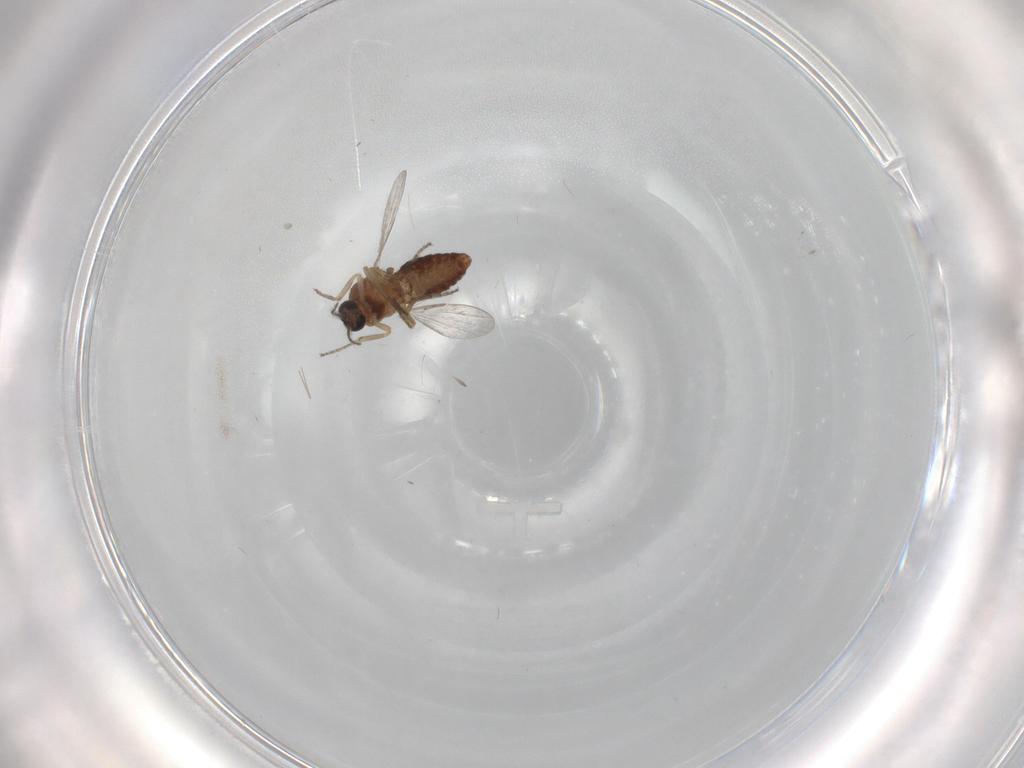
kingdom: Animalia
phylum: Arthropoda
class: Insecta
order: Diptera
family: Ceratopogonidae
